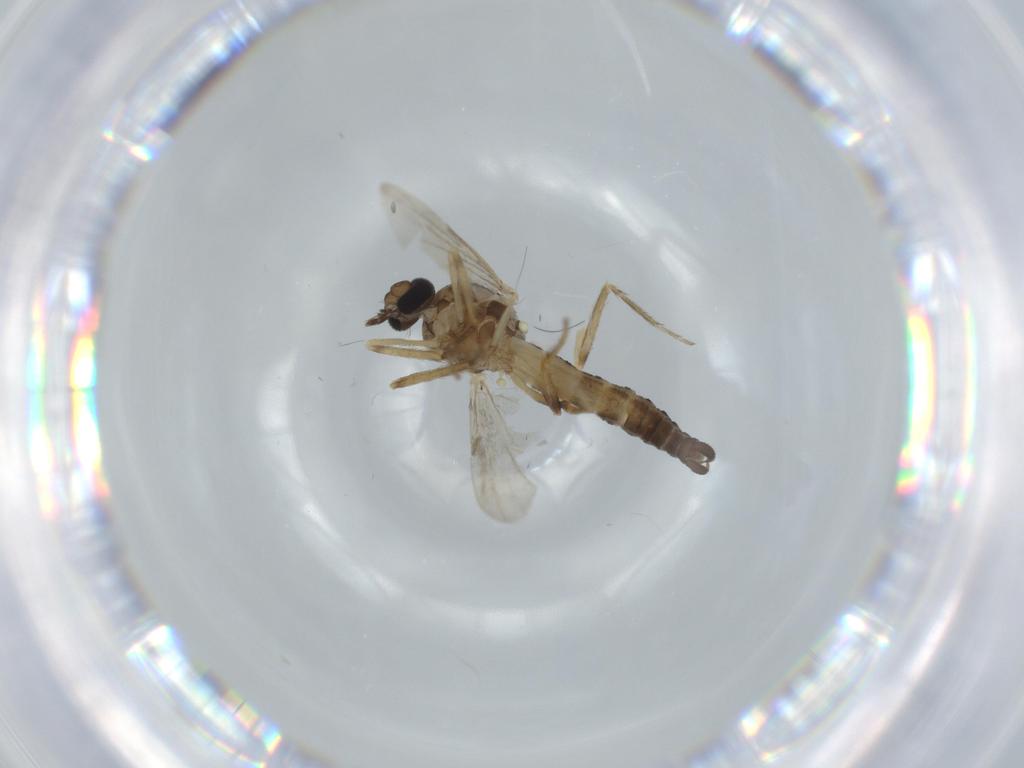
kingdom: Animalia
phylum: Arthropoda
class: Insecta
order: Diptera
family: Ceratopogonidae
